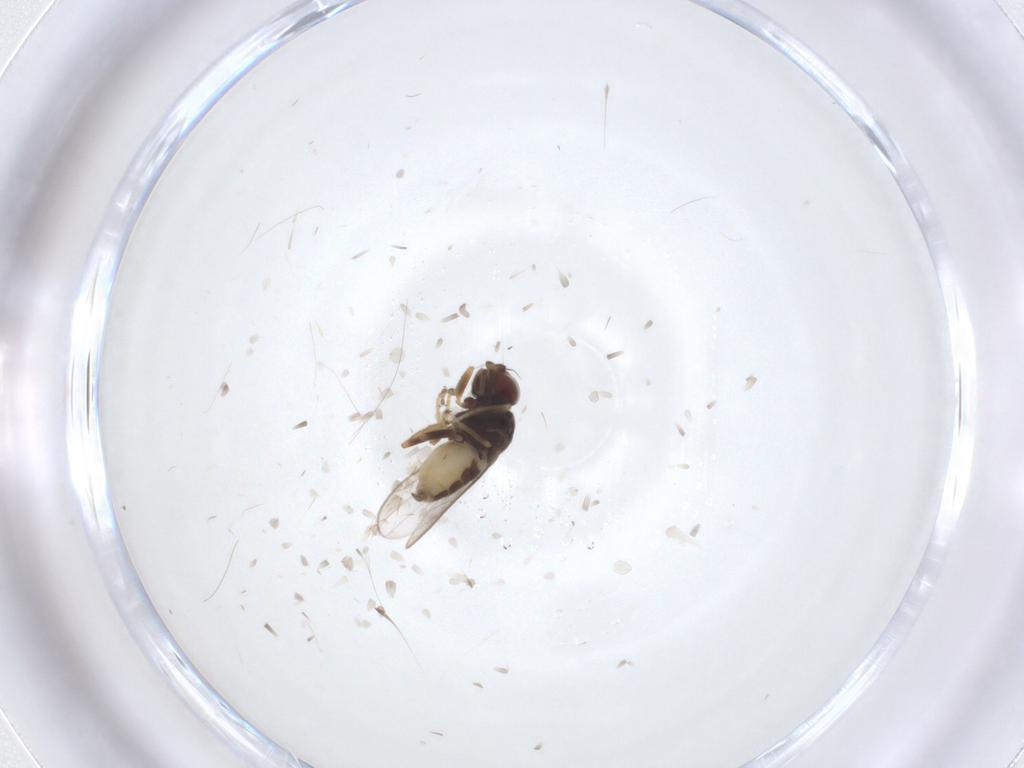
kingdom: Animalia
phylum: Arthropoda
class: Insecta
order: Diptera
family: Chloropidae
